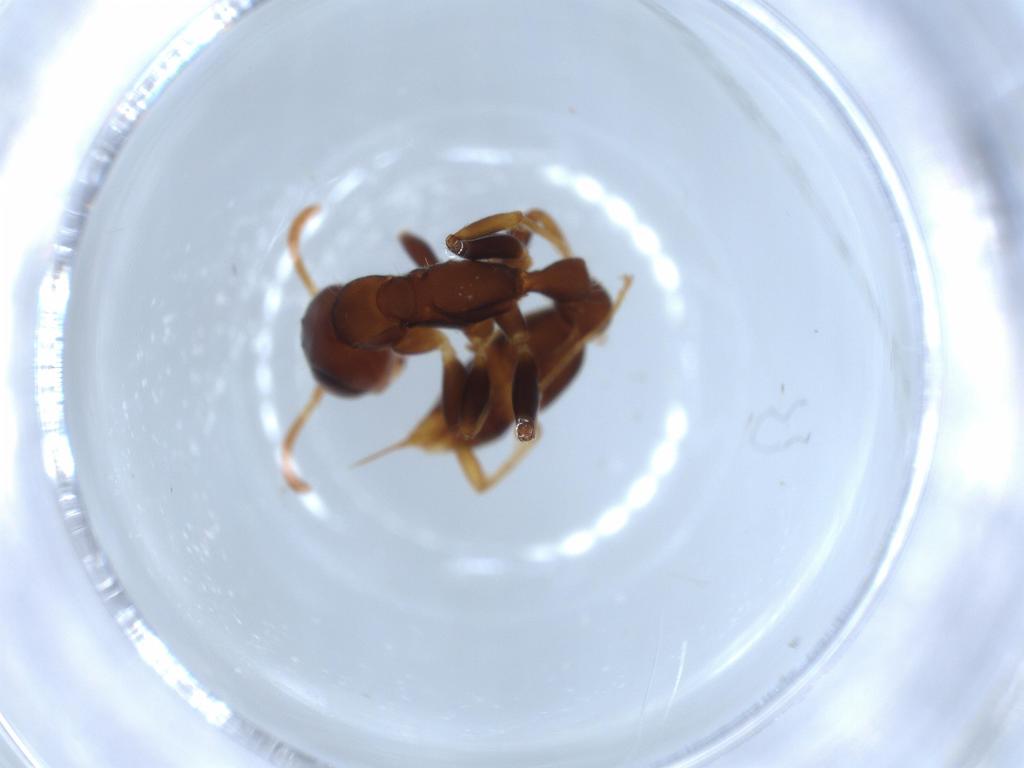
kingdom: Animalia
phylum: Arthropoda
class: Insecta
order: Hymenoptera
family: Formicidae
